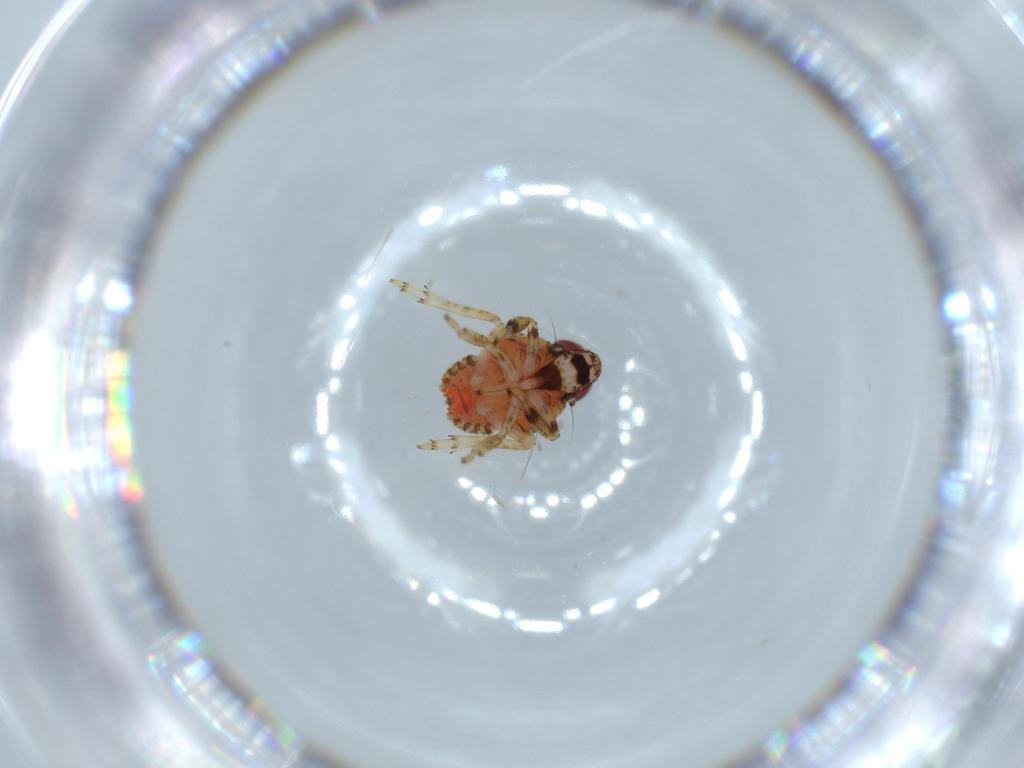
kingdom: Animalia
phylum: Arthropoda
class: Insecta
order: Hemiptera
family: Issidae
